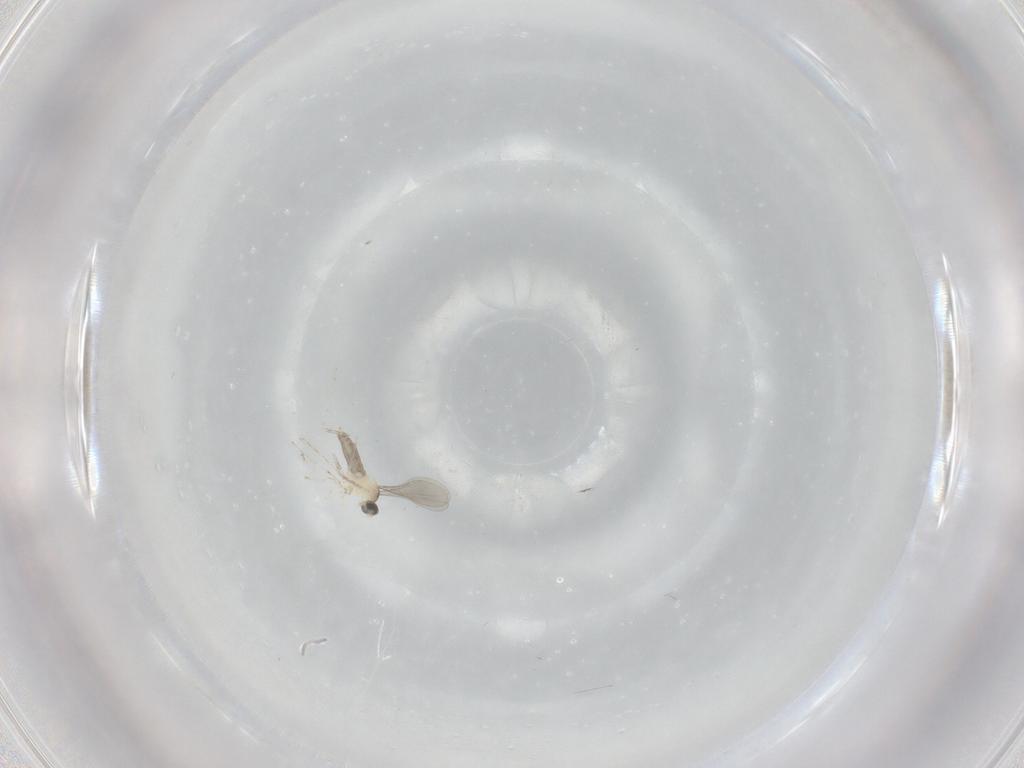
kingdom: Animalia
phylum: Arthropoda
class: Insecta
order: Diptera
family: Cecidomyiidae
